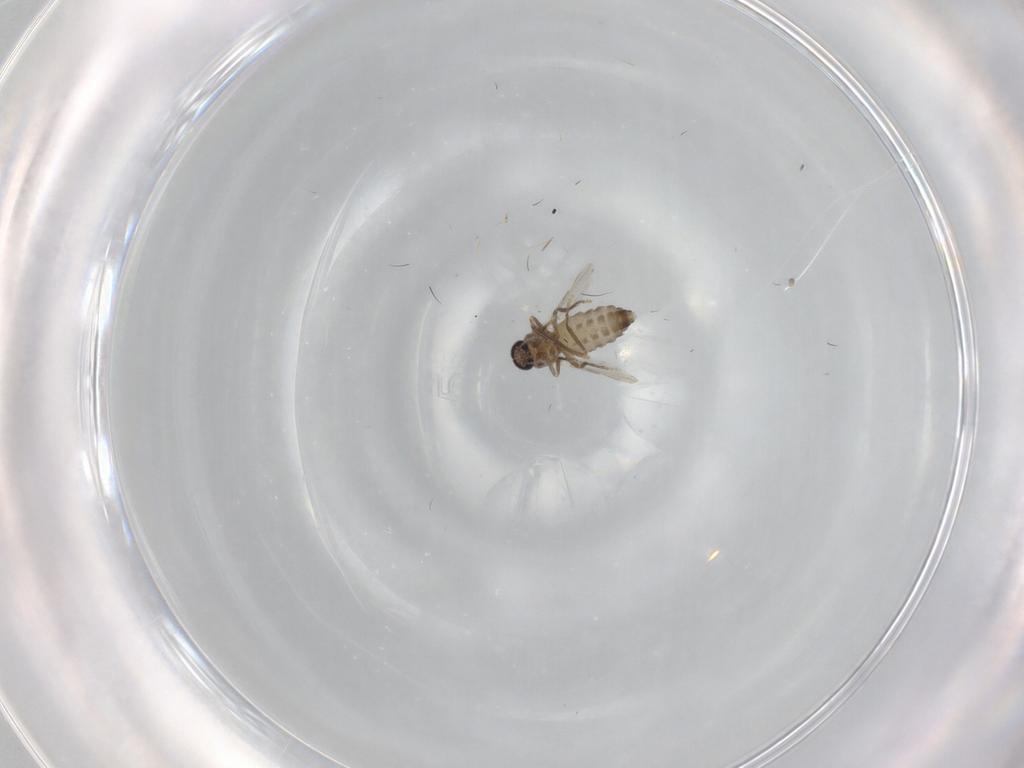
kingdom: Animalia
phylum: Arthropoda
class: Insecta
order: Diptera
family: Ceratopogonidae
